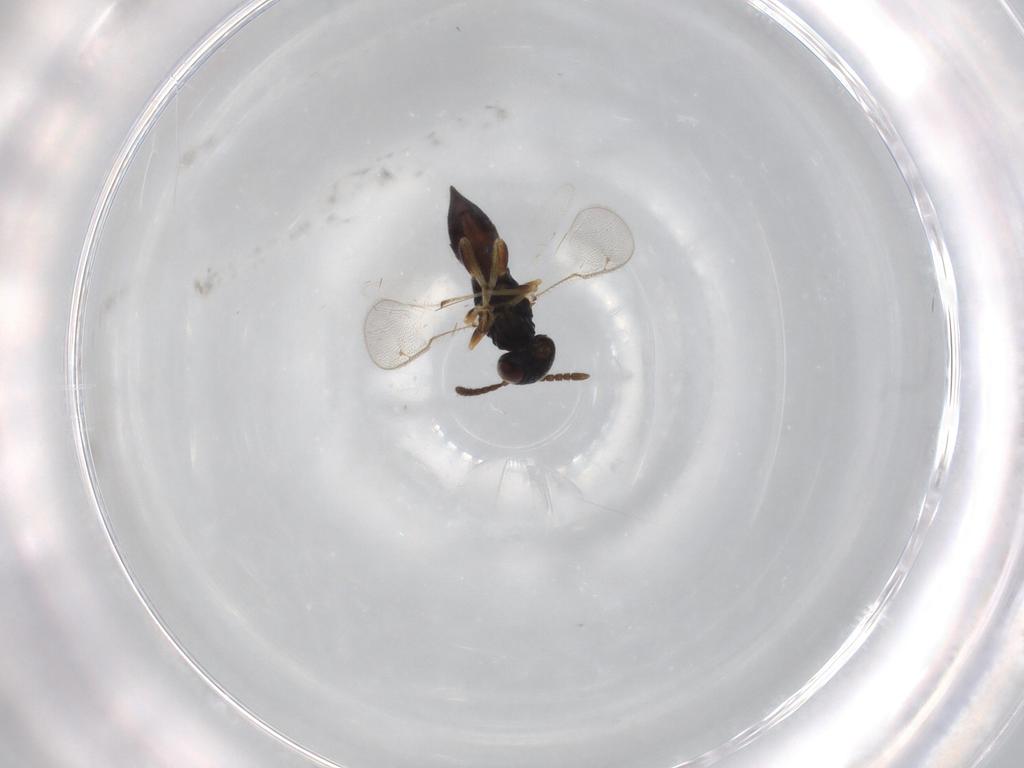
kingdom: Animalia
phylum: Arthropoda
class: Insecta
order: Hymenoptera
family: Pteromalidae
